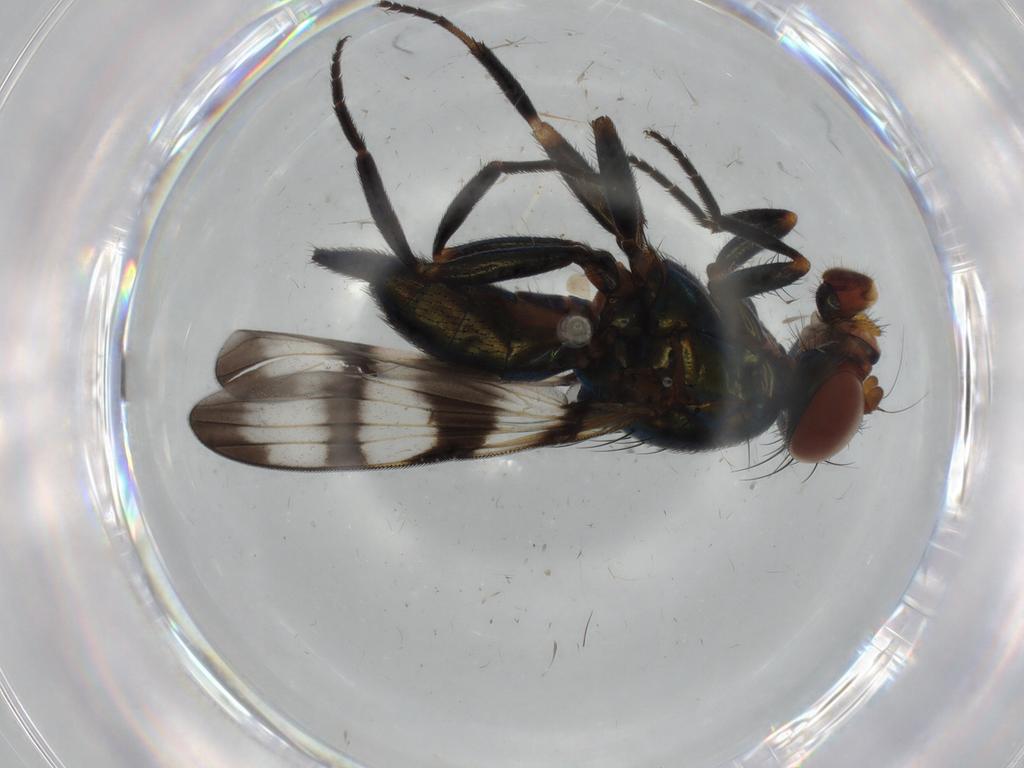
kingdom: Animalia
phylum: Arthropoda
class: Insecta
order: Diptera
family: Ulidiidae
